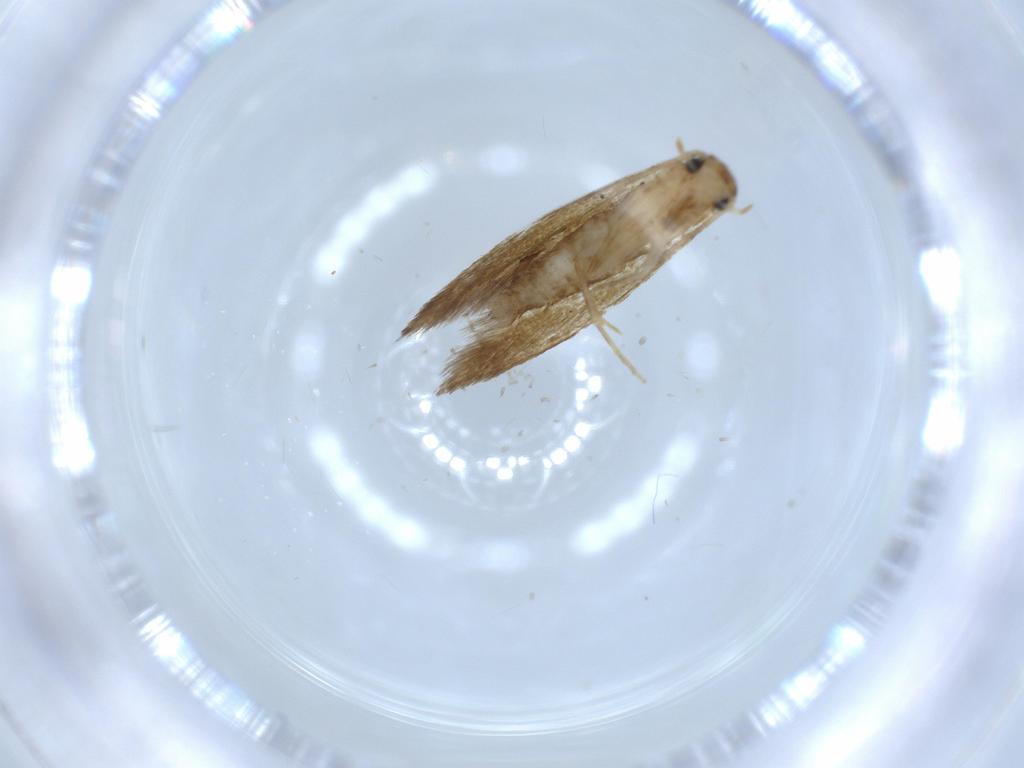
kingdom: Animalia
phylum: Arthropoda
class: Insecta
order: Lepidoptera
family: Tineidae
